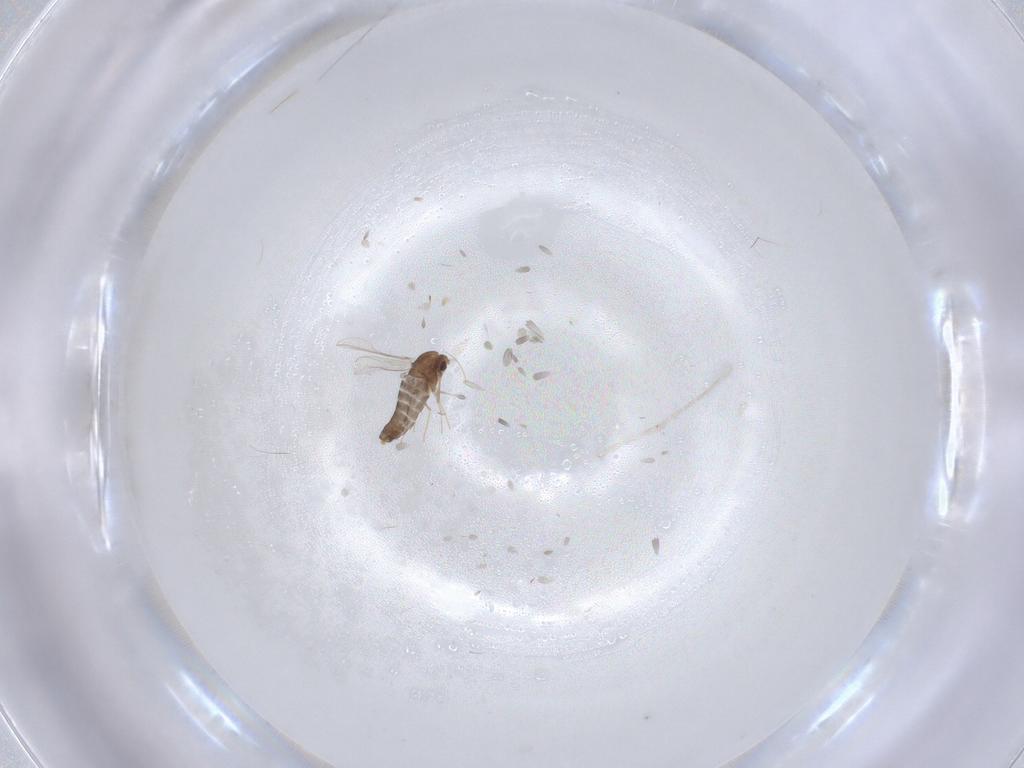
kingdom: Animalia
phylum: Arthropoda
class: Insecta
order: Diptera
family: Chironomidae
